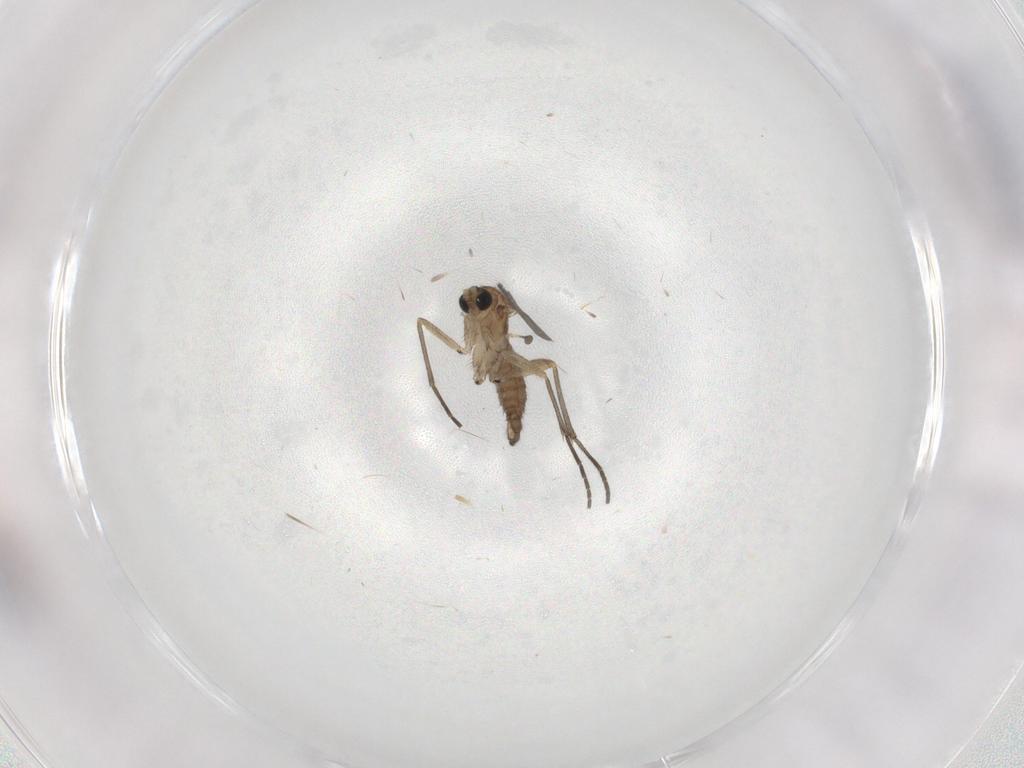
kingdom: Animalia
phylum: Arthropoda
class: Insecta
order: Diptera
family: Sciaridae
